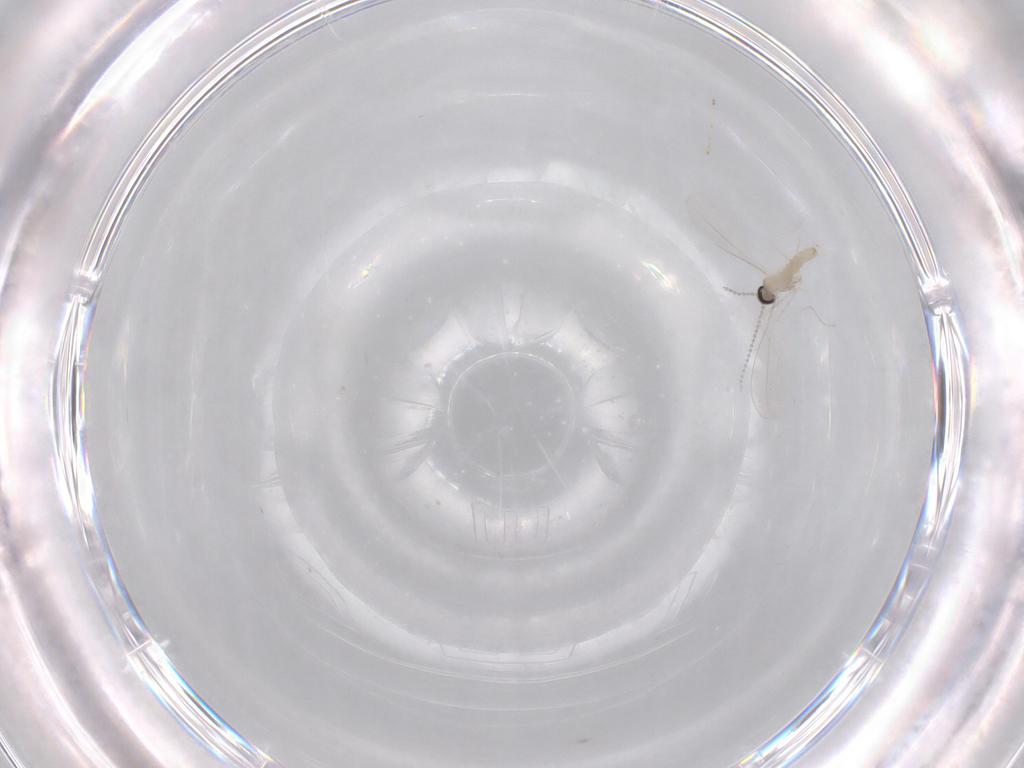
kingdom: Animalia
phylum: Arthropoda
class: Insecta
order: Diptera
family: Cecidomyiidae
